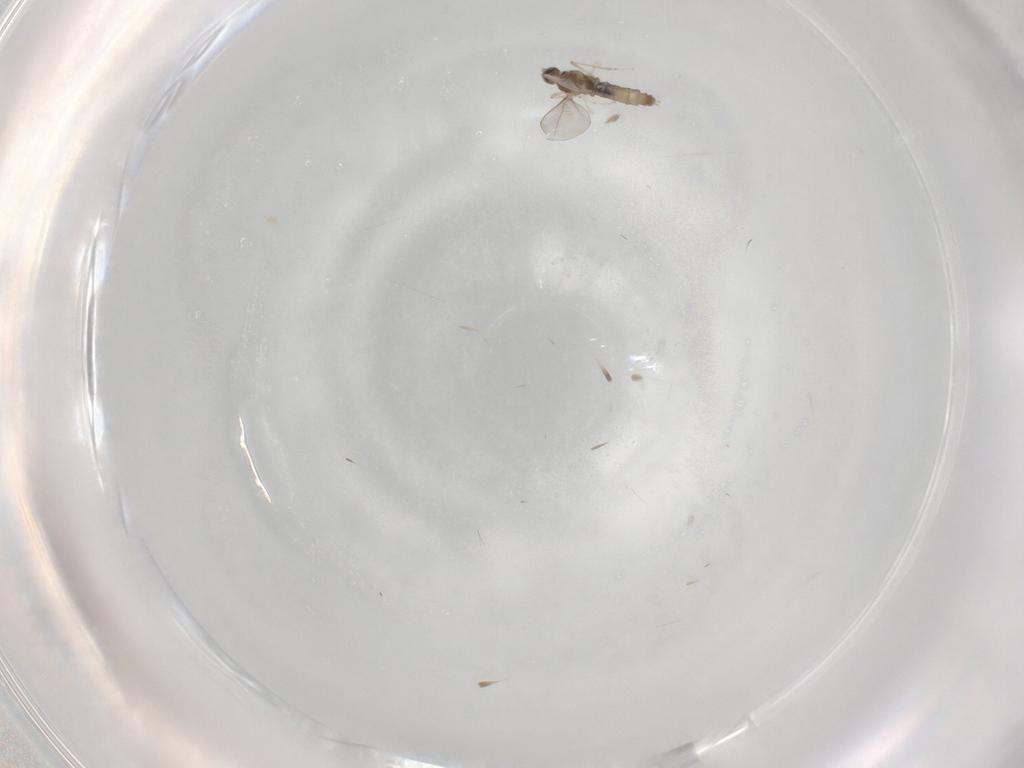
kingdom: Animalia
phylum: Arthropoda
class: Insecta
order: Diptera
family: Cecidomyiidae
